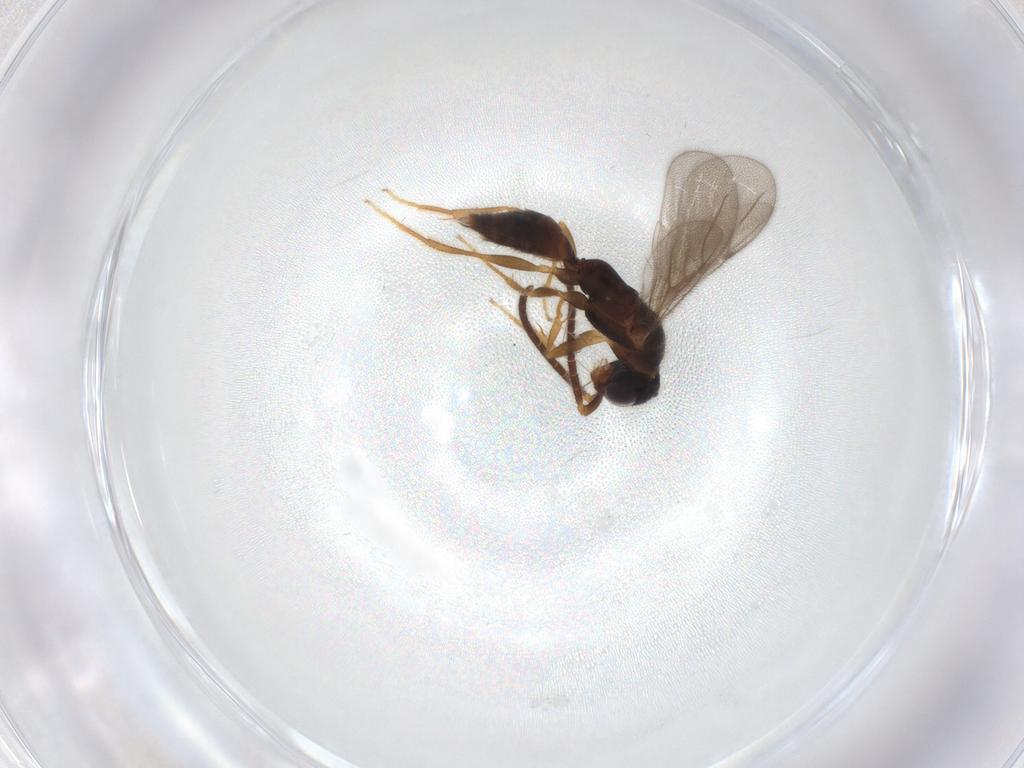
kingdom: Animalia
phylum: Arthropoda
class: Insecta
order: Hymenoptera
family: Bethylidae
